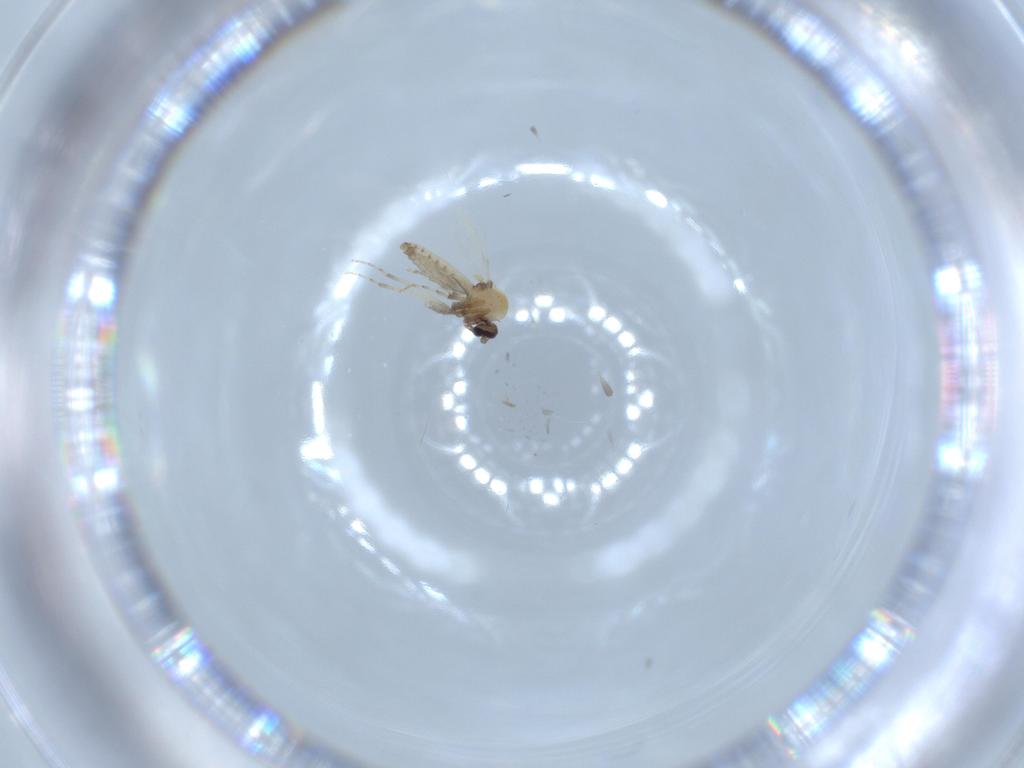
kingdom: Animalia
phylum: Arthropoda
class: Insecta
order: Diptera
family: Ceratopogonidae
